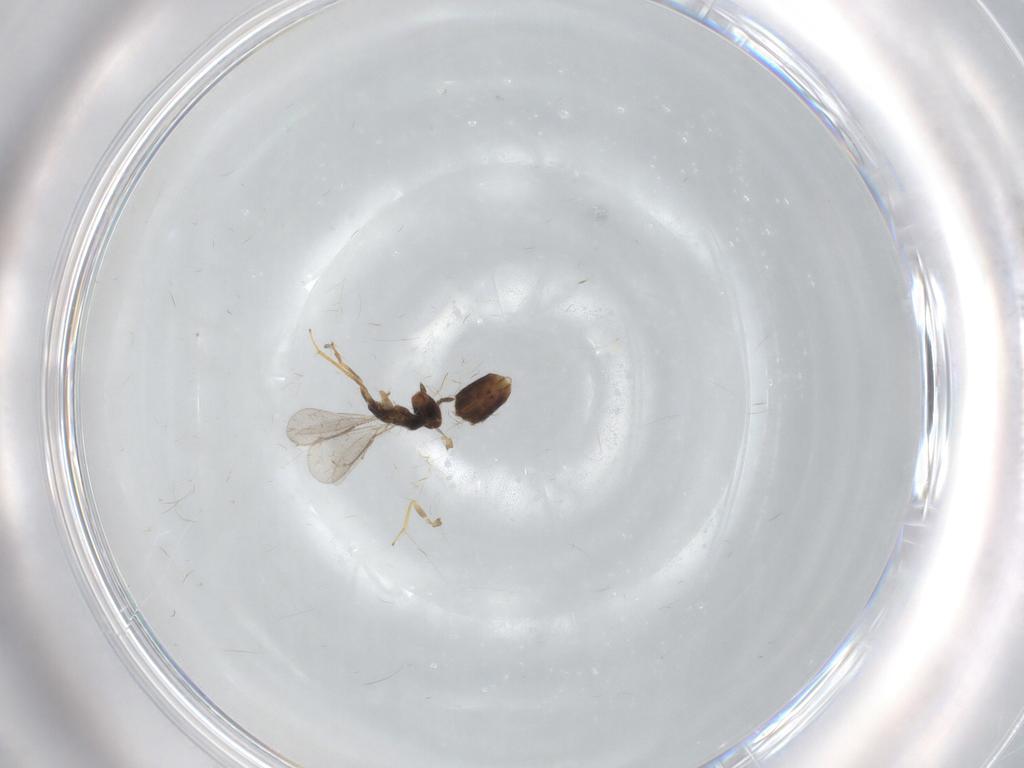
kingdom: Animalia
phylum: Arthropoda
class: Insecta
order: Hymenoptera
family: Eulophidae
